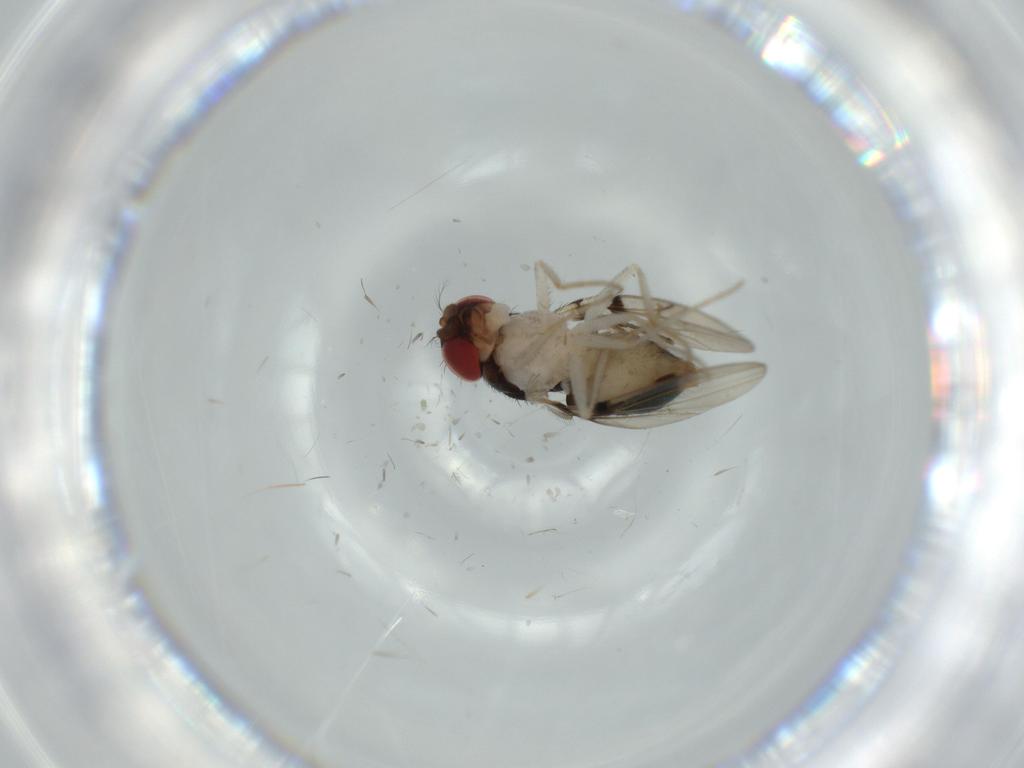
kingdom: Animalia
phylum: Arthropoda
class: Insecta
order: Diptera
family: Drosophilidae
